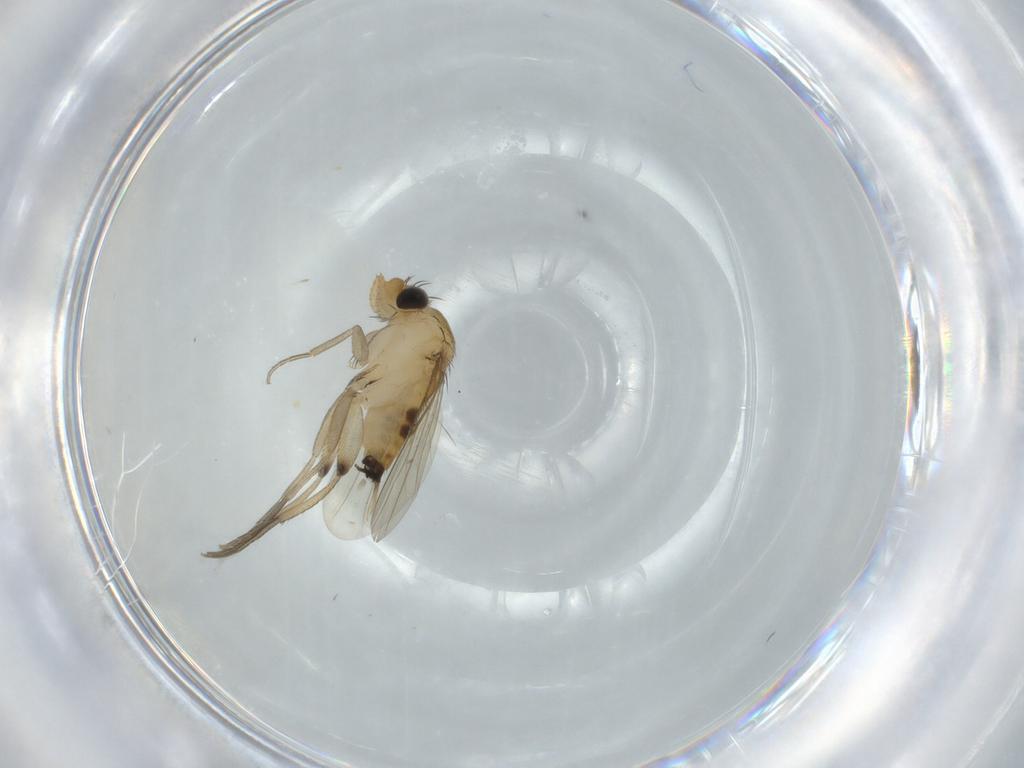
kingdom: Animalia
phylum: Arthropoda
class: Insecta
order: Diptera
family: Phoridae
